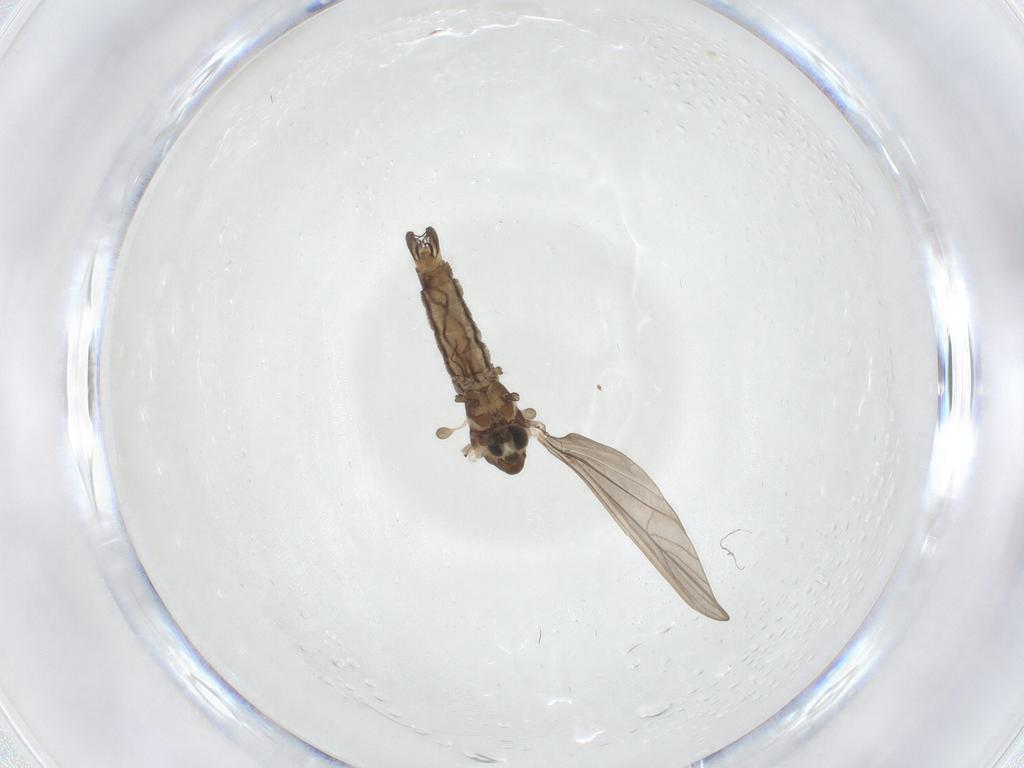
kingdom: Animalia
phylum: Arthropoda
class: Insecta
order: Diptera
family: Cecidomyiidae
